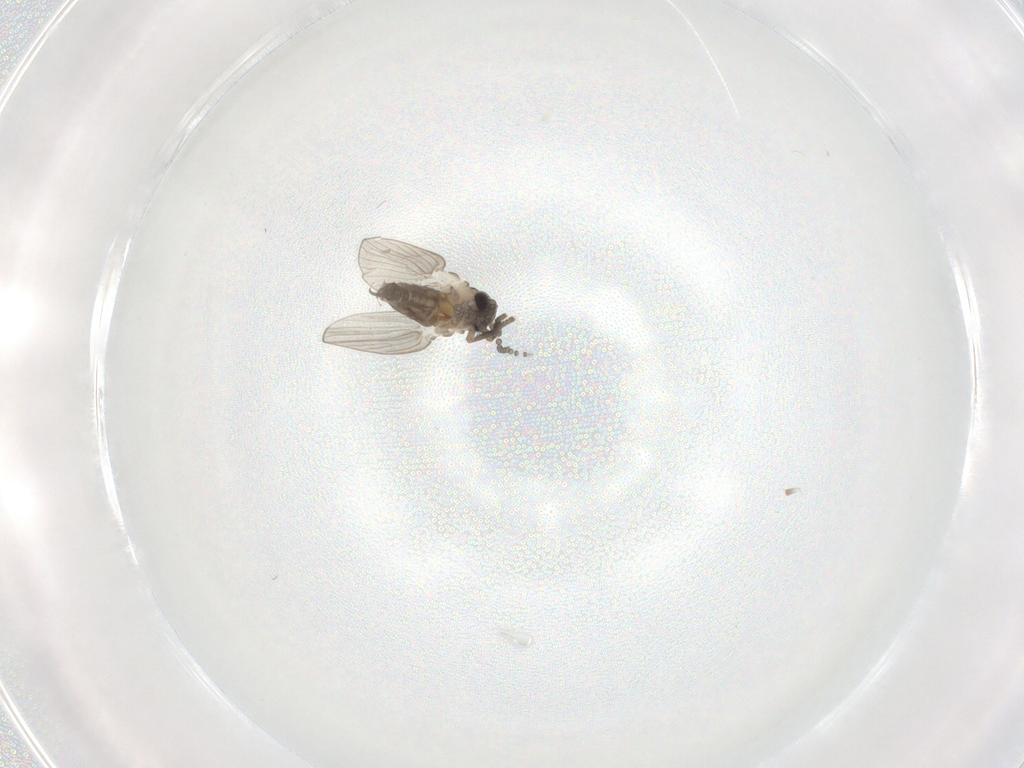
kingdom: Animalia
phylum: Arthropoda
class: Insecta
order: Diptera
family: Psychodidae
